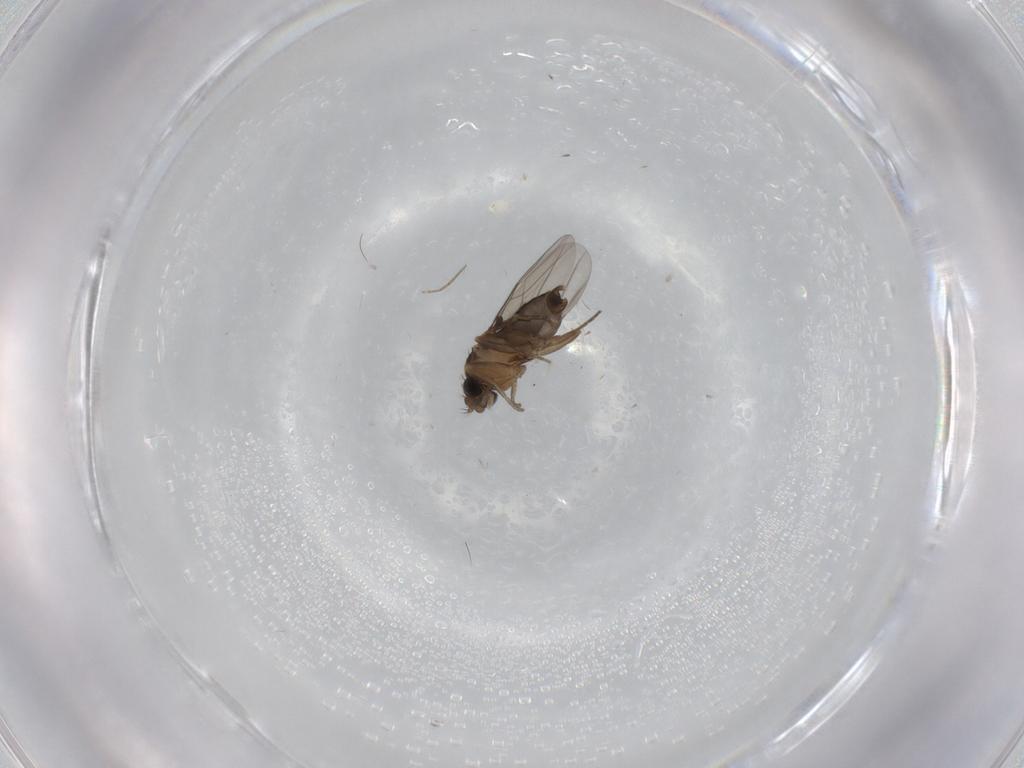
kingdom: Animalia
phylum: Arthropoda
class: Insecta
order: Diptera
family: Phoridae
